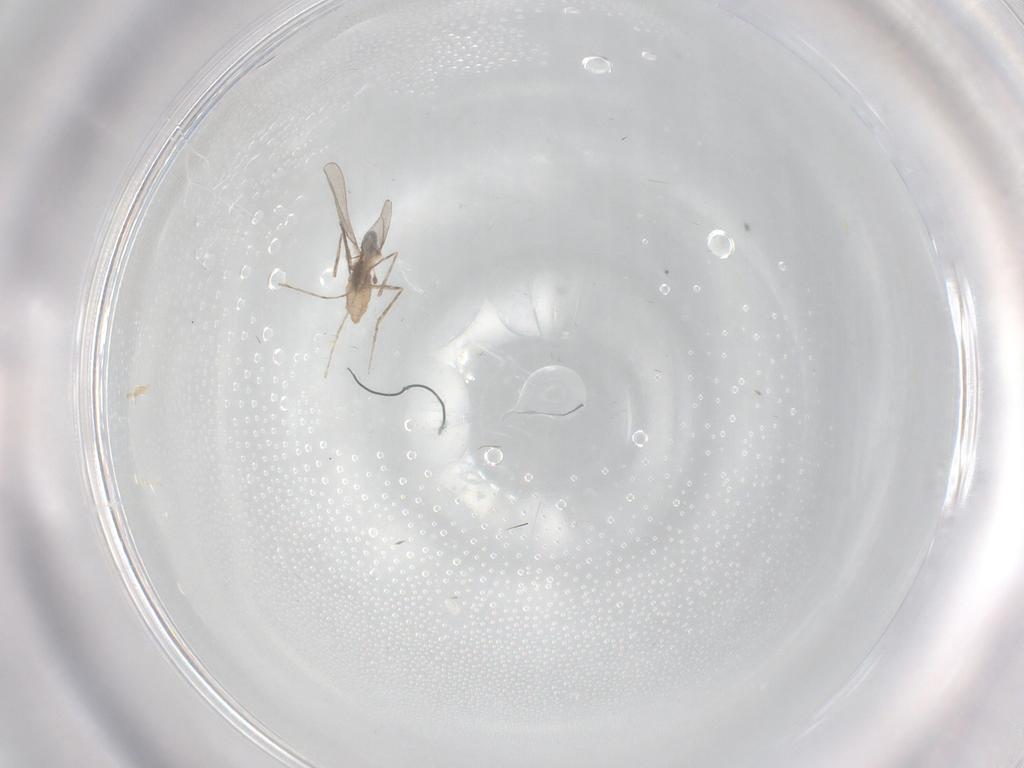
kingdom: Animalia
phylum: Arthropoda
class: Insecta
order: Diptera
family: Cecidomyiidae
